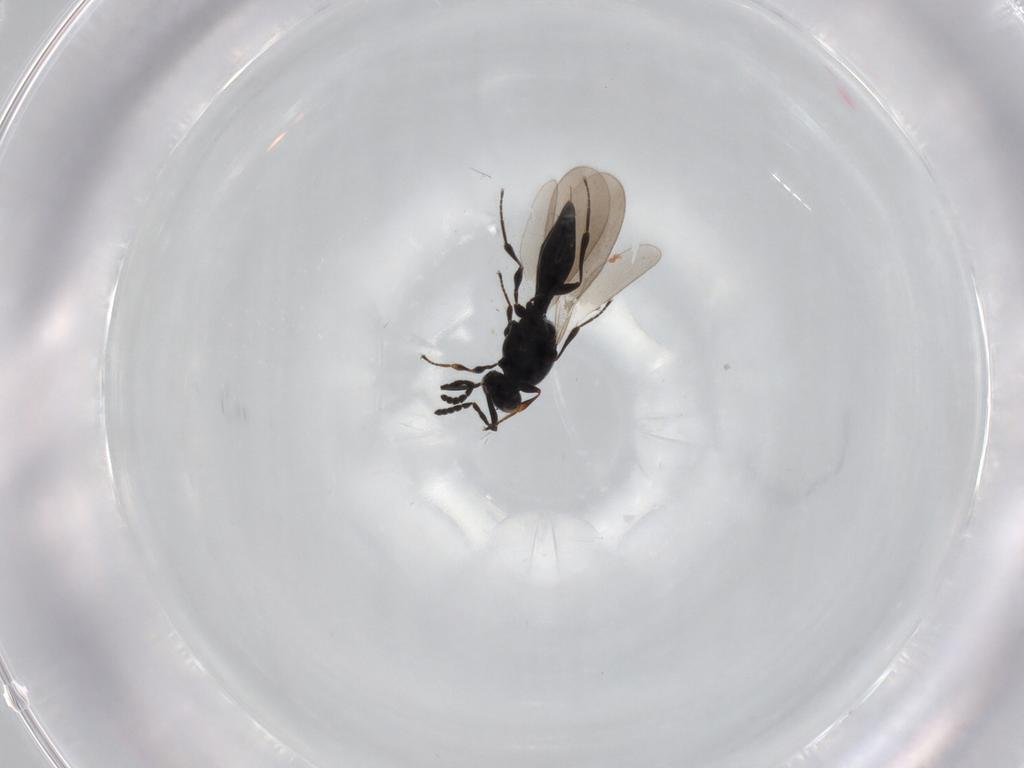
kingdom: Animalia
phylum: Arthropoda
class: Insecta
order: Hymenoptera
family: Platygastridae
